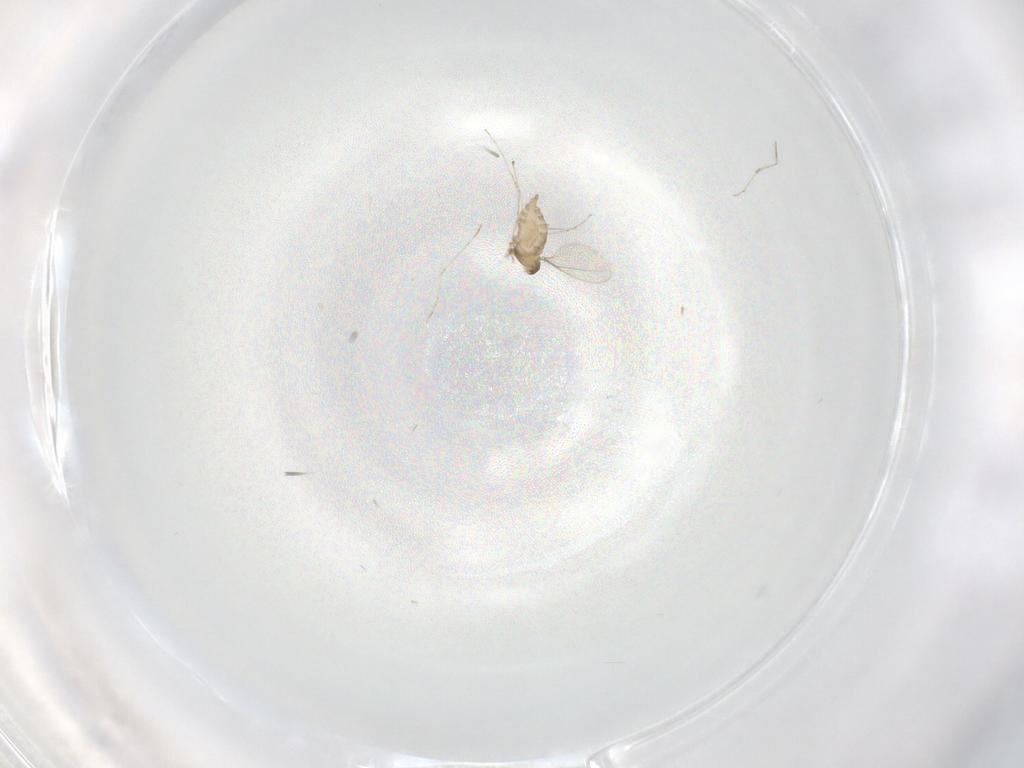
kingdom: Animalia
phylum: Arthropoda
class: Insecta
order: Diptera
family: Cecidomyiidae
